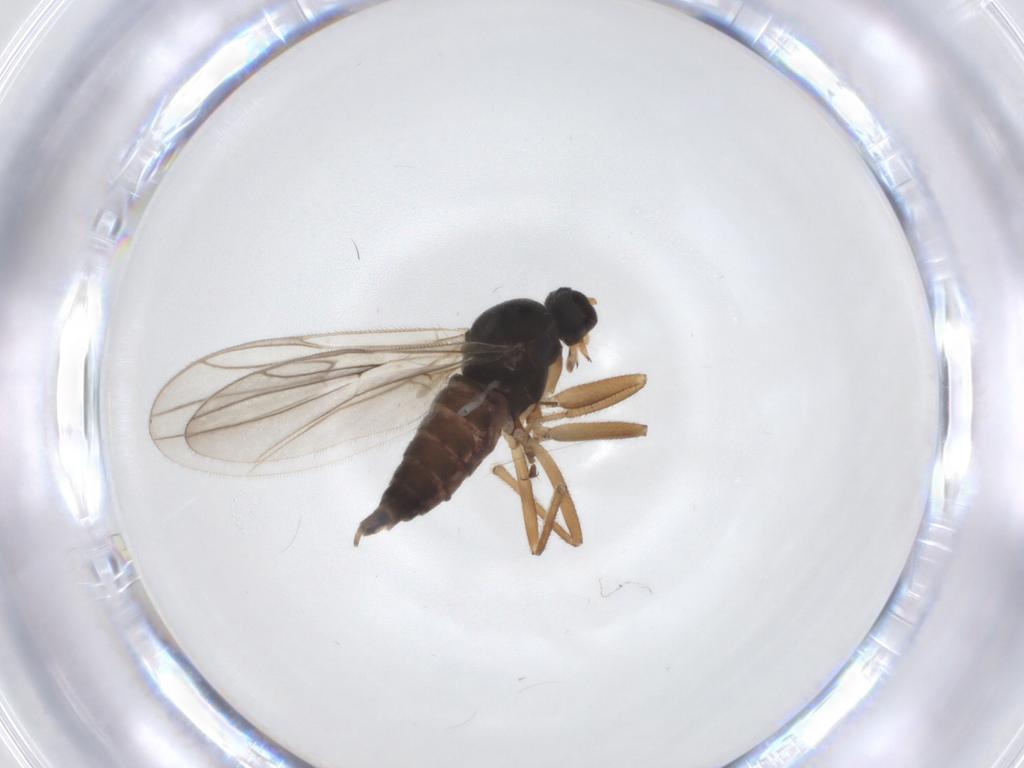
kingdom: Animalia
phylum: Arthropoda
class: Insecta
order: Diptera
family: Hybotidae
